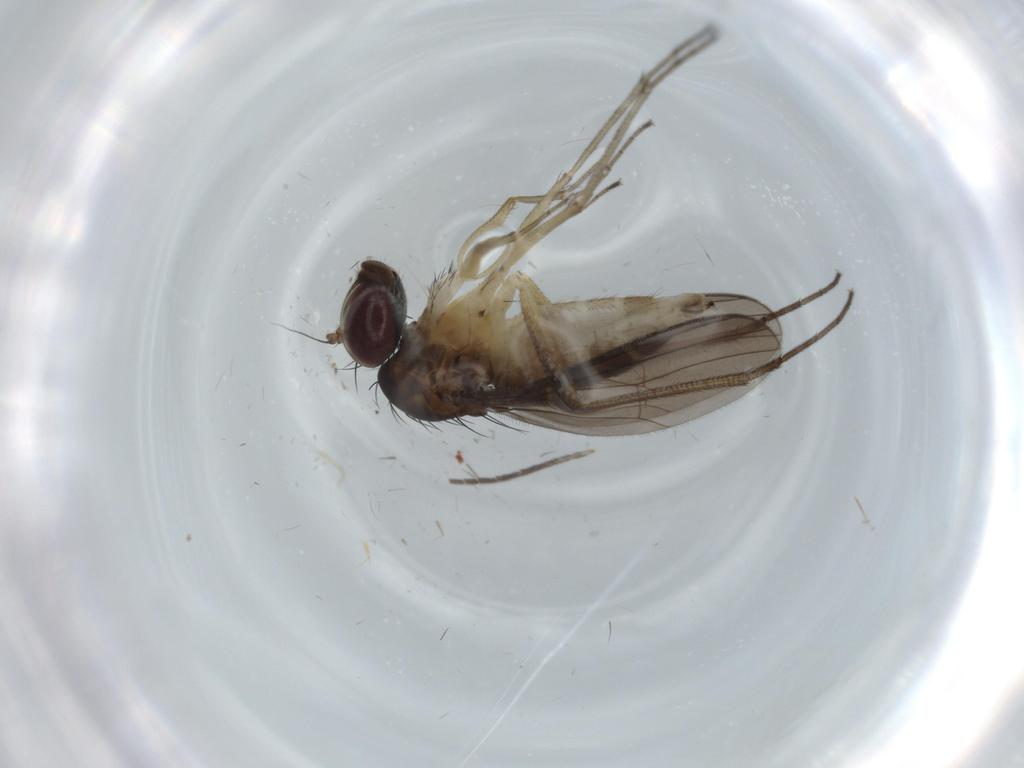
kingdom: Animalia
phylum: Arthropoda
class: Insecta
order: Diptera
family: Dolichopodidae
